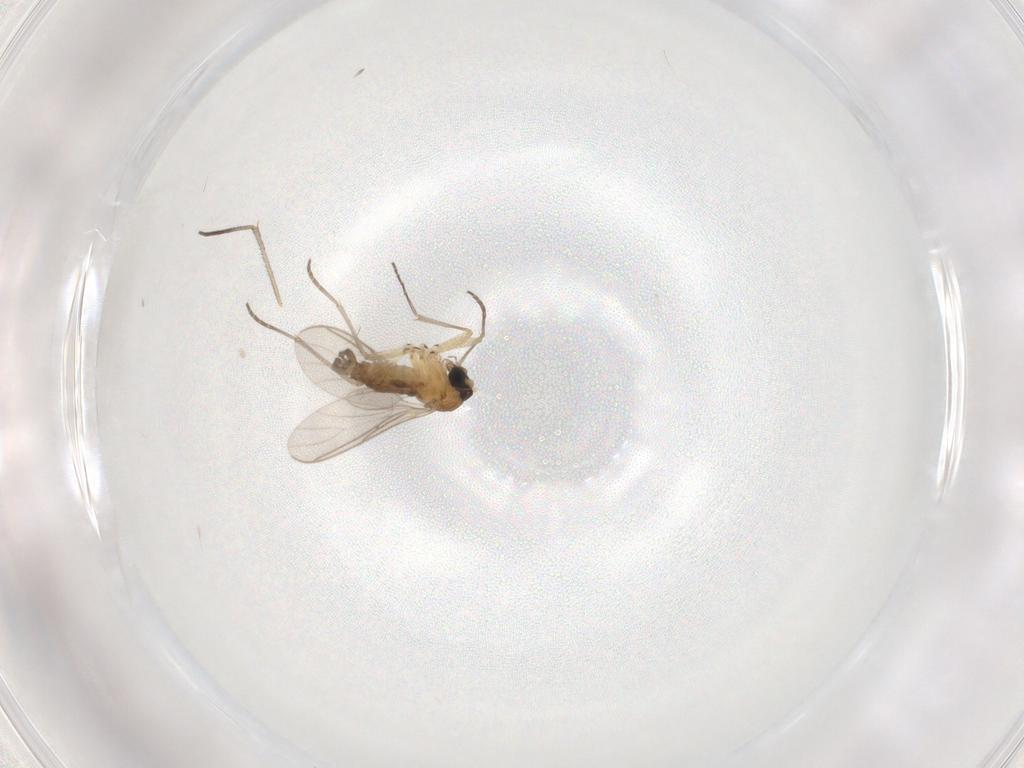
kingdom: Animalia
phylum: Arthropoda
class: Insecta
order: Diptera
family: Sciaridae
